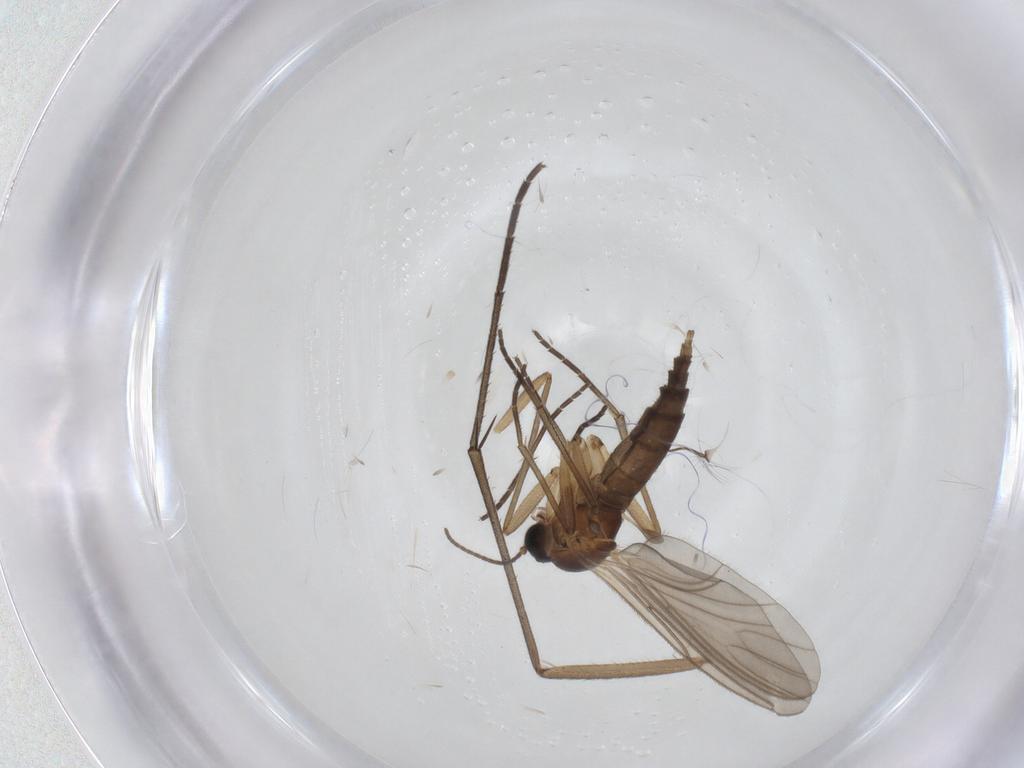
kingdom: Animalia
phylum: Arthropoda
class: Insecta
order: Diptera
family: Sciaridae
